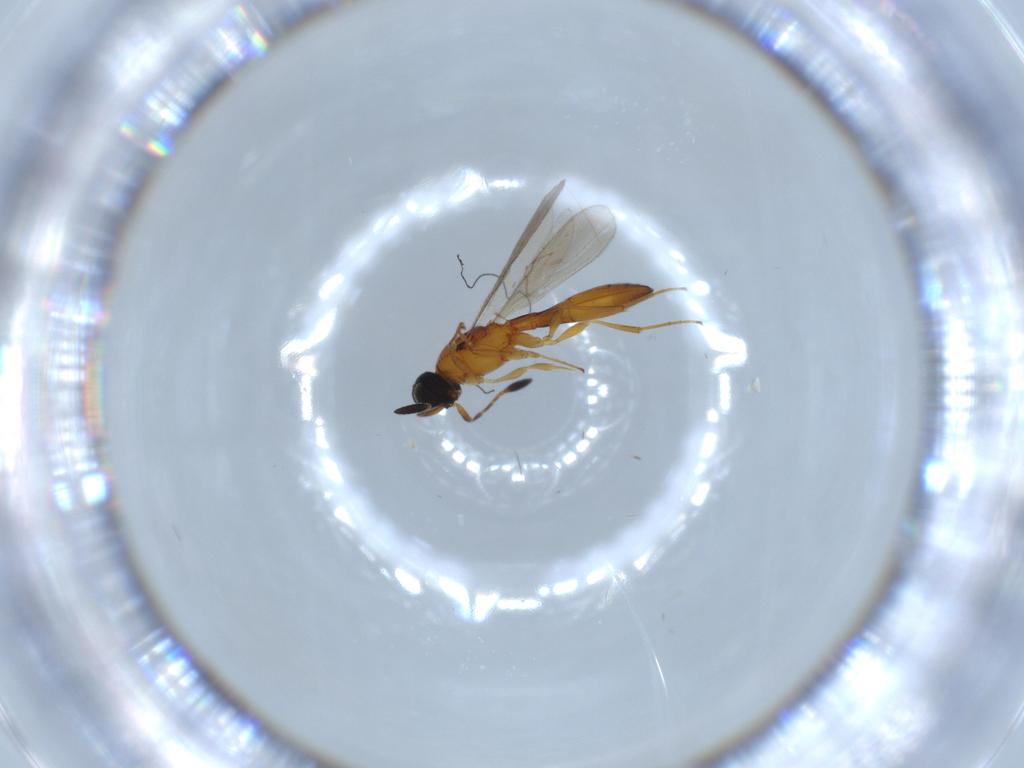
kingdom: Animalia
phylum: Arthropoda
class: Insecta
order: Hymenoptera
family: Scelionidae
